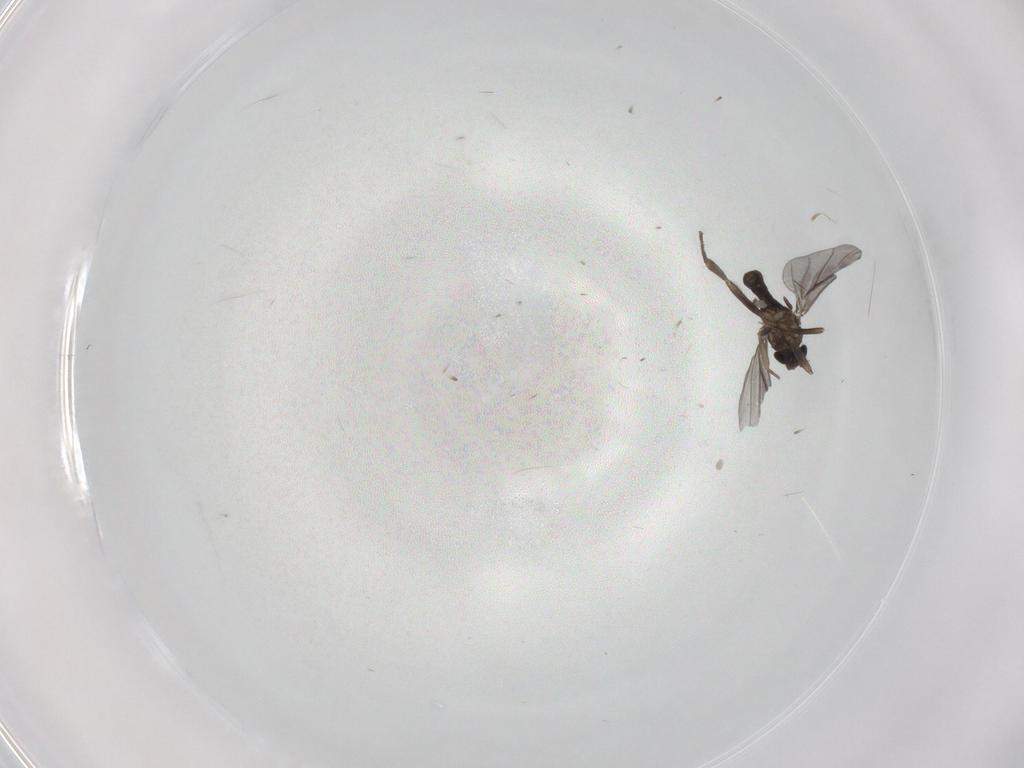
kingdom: Animalia
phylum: Arthropoda
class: Insecta
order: Diptera
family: Phoridae
